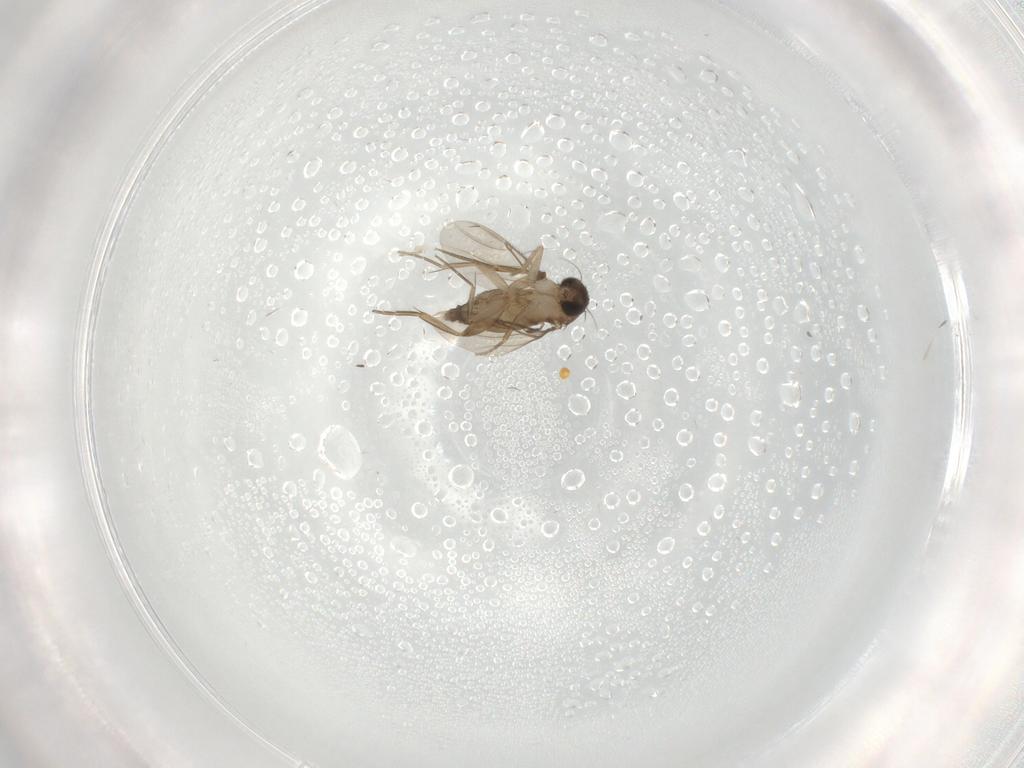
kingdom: Animalia
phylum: Arthropoda
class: Insecta
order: Diptera
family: Phoridae
